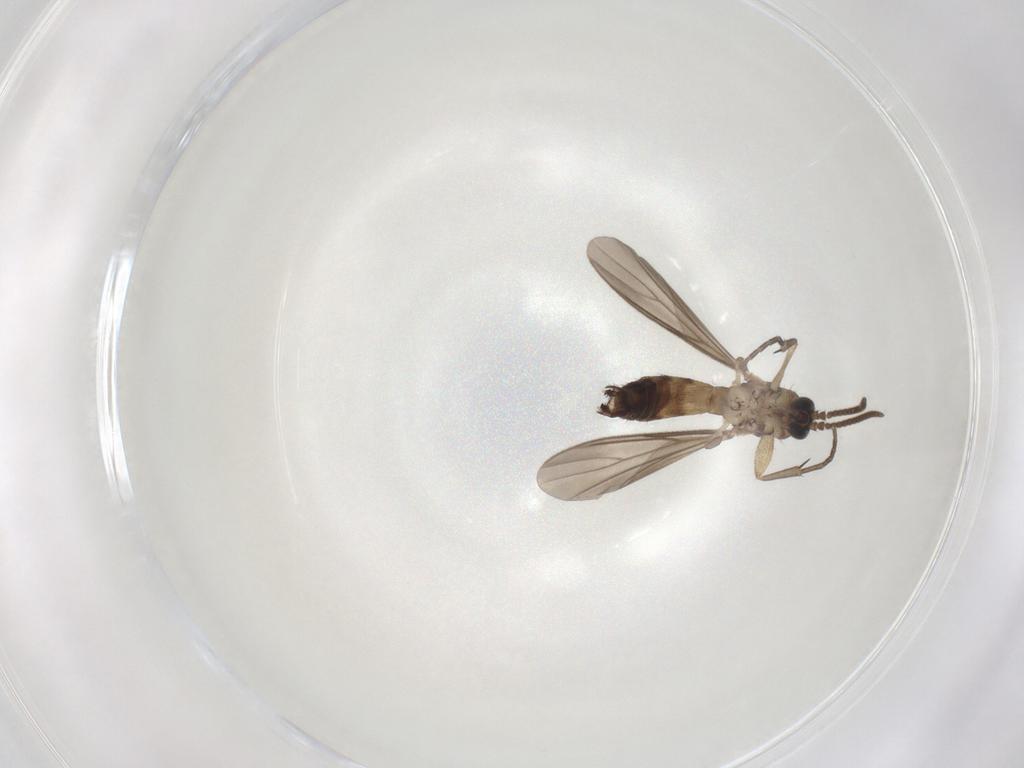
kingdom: Animalia
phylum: Arthropoda
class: Insecta
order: Diptera
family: Mycetophilidae
